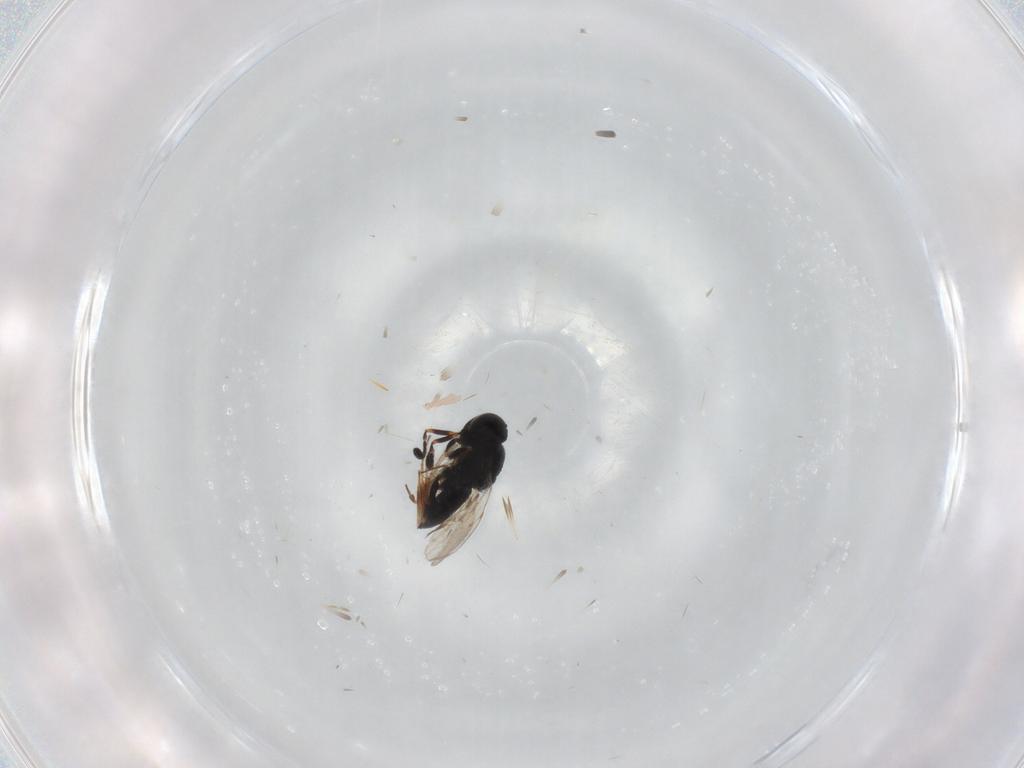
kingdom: Animalia
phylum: Arthropoda
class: Insecta
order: Hymenoptera
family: Scelionidae
